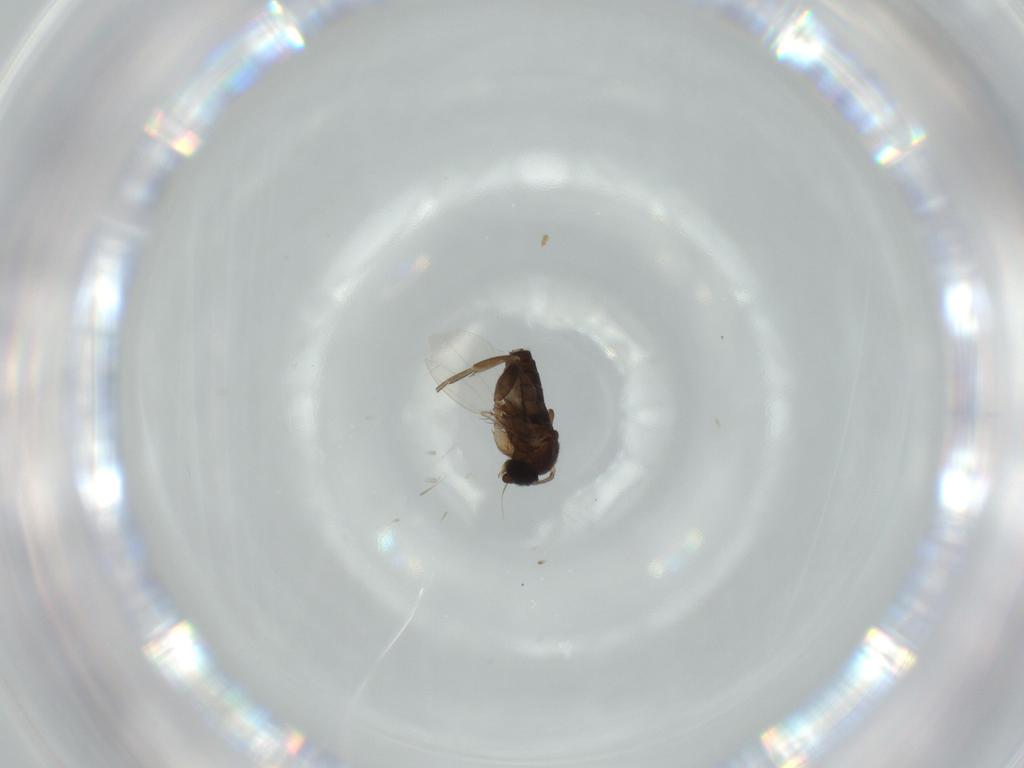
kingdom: Animalia
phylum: Arthropoda
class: Insecta
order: Diptera
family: Phoridae
